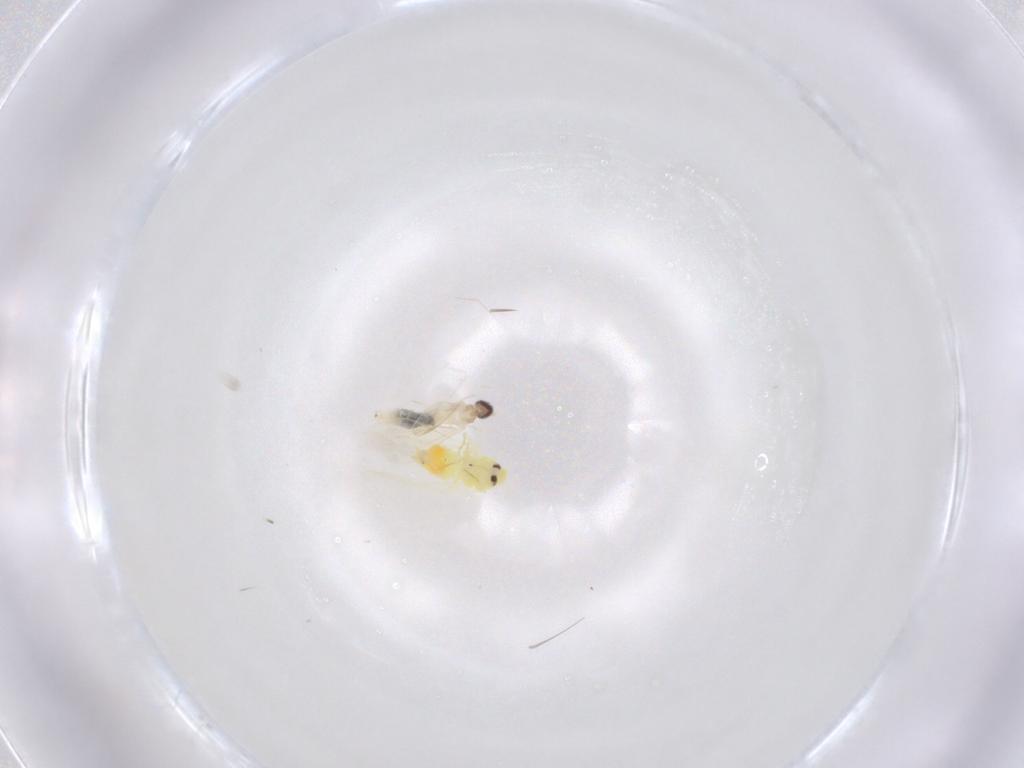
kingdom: Animalia
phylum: Arthropoda
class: Insecta
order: Hemiptera
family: Aleyrodidae
